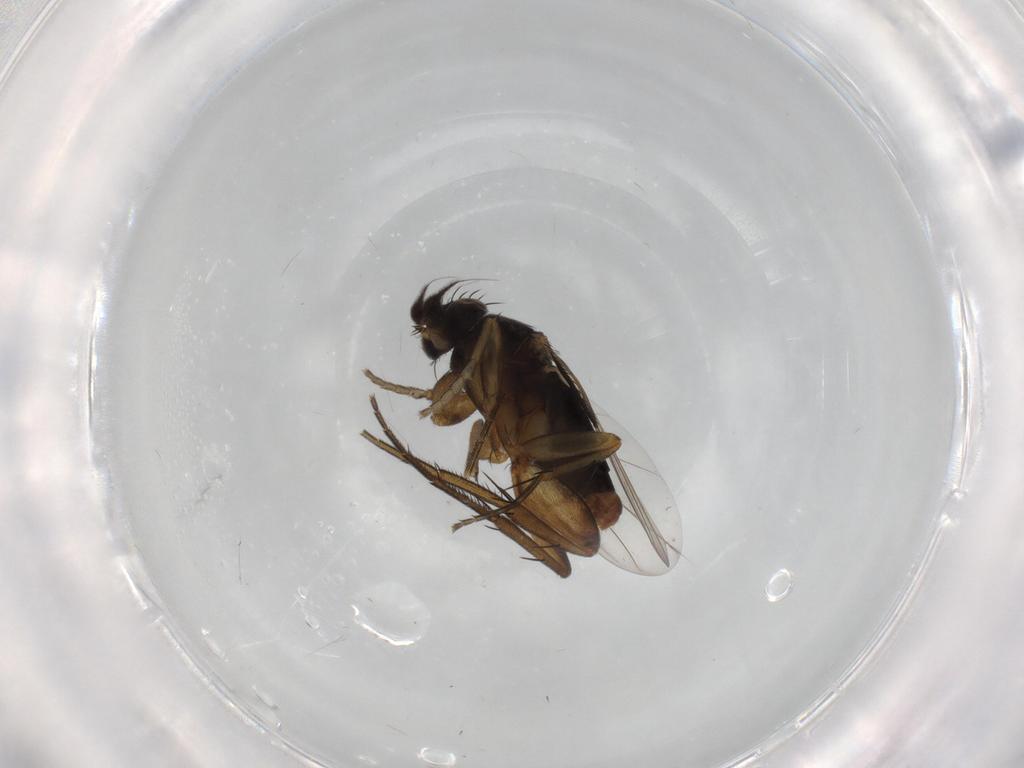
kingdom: Animalia
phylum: Arthropoda
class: Insecta
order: Diptera
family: Phoridae
